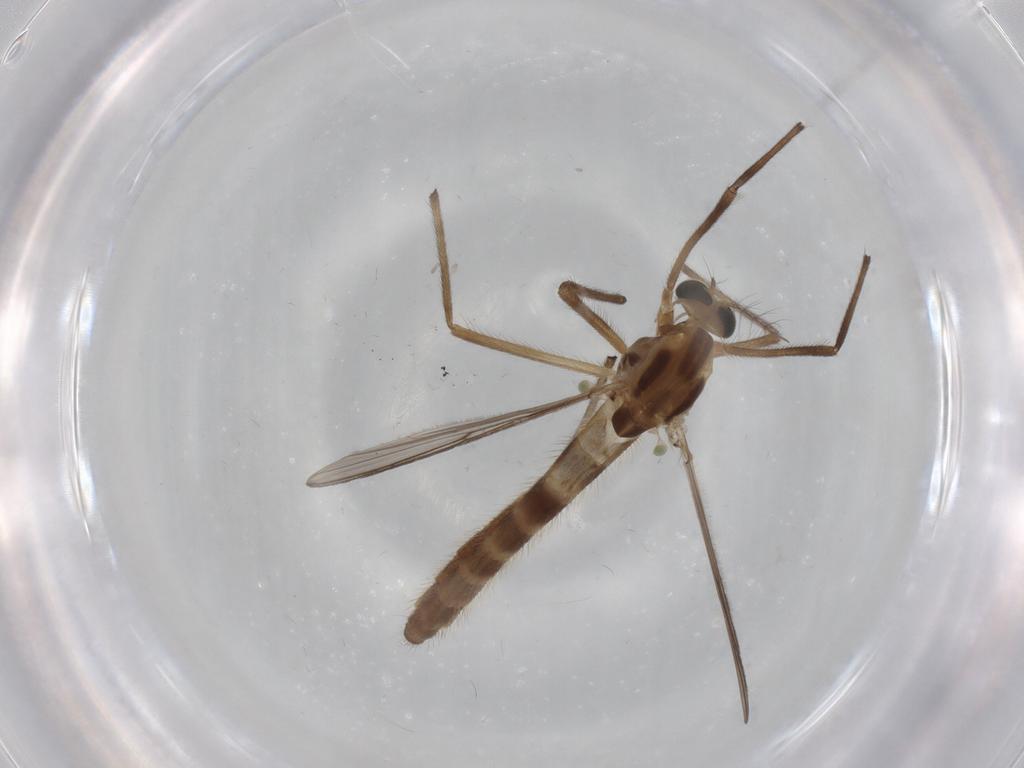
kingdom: Animalia
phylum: Arthropoda
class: Insecta
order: Diptera
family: Chironomidae
